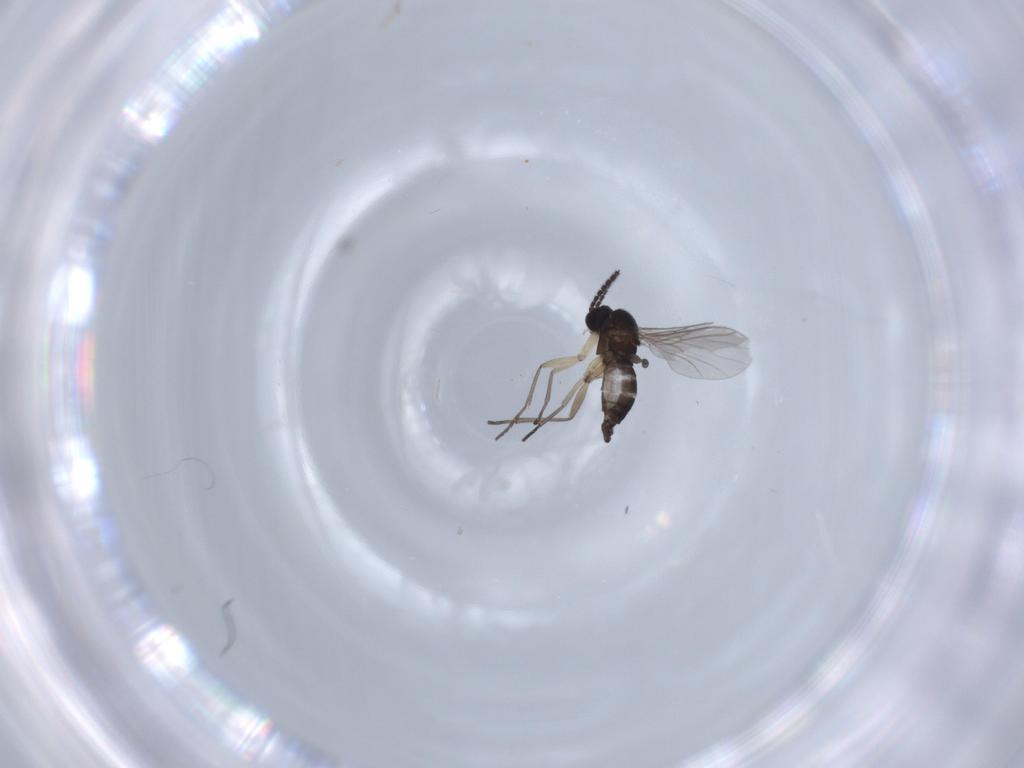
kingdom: Animalia
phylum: Arthropoda
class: Insecta
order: Diptera
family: Sciaridae
